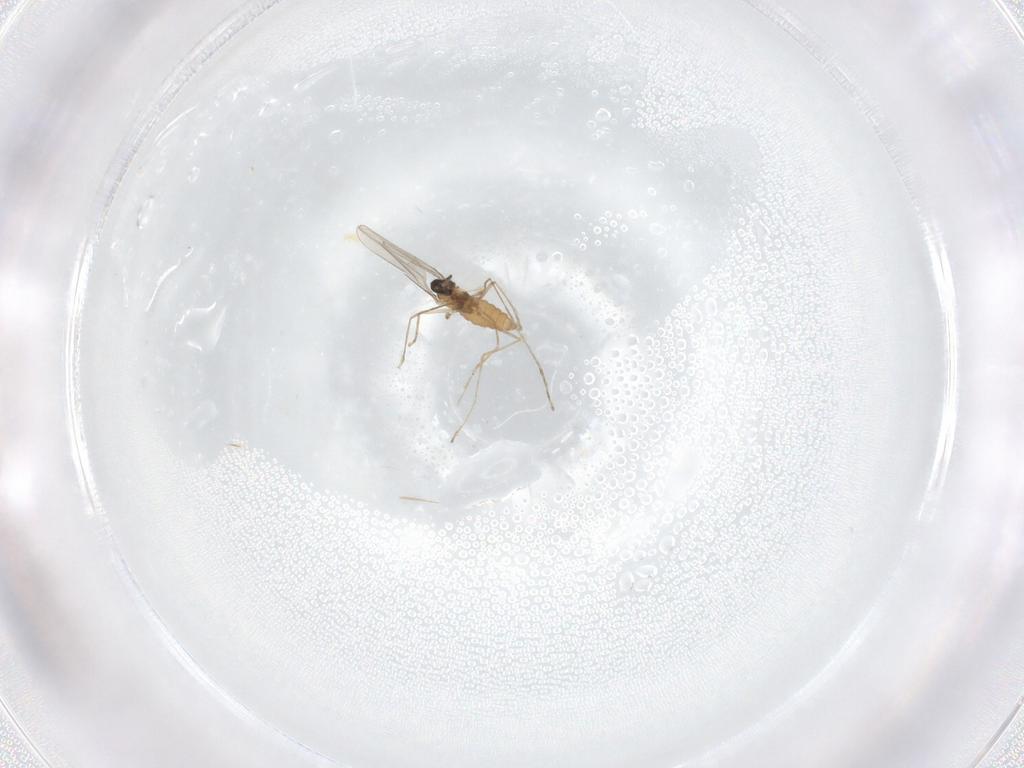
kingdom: Animalia
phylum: Arthropoda
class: Insecta
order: Diptera
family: Cecidomyiidae
